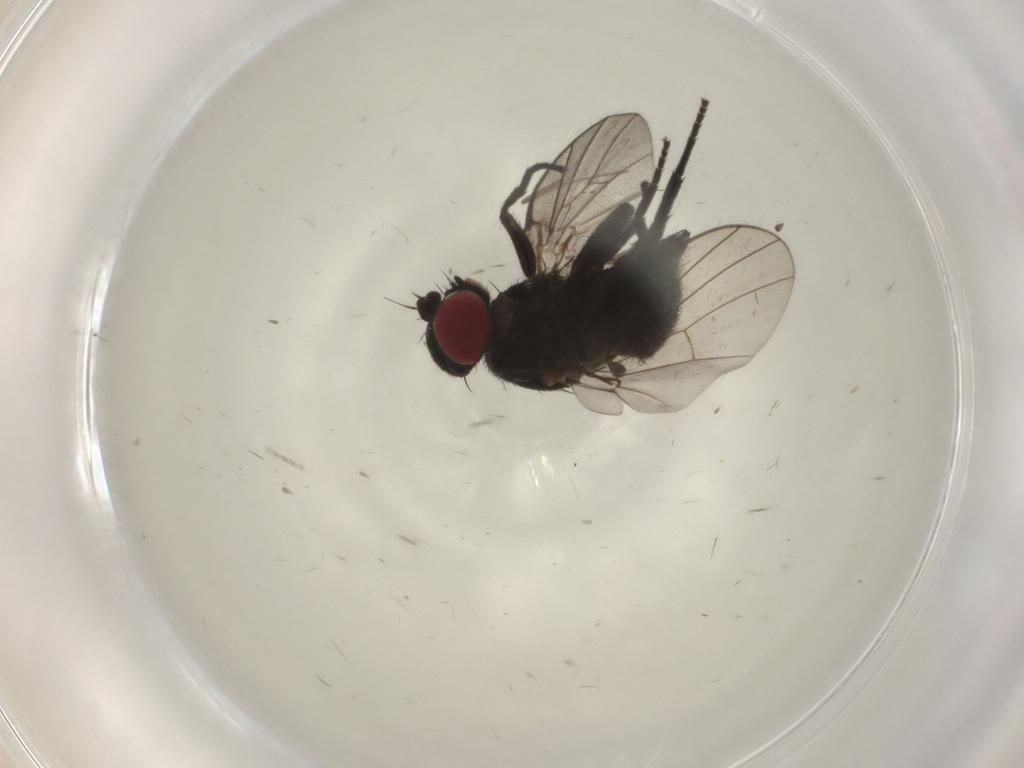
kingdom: Animalia
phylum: Arthropoda
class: Insecta
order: Diptera
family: Agromyzidae
